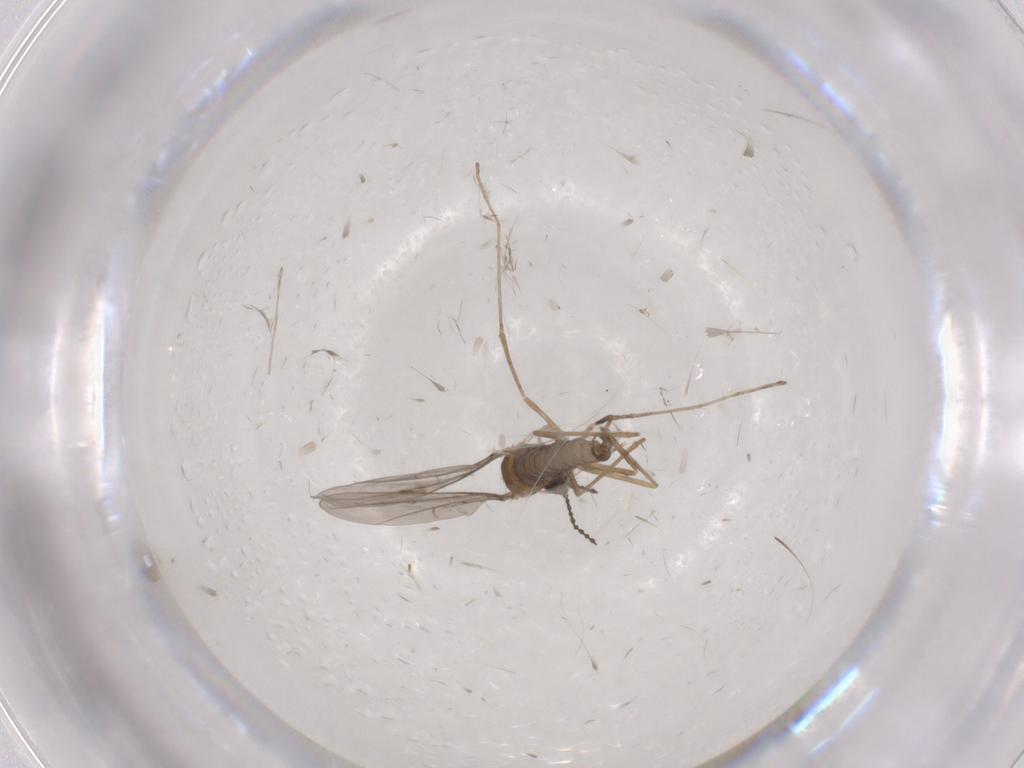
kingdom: Animalia
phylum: Arthropoda
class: Insecta
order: Diptera
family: Cecidomyiidae
